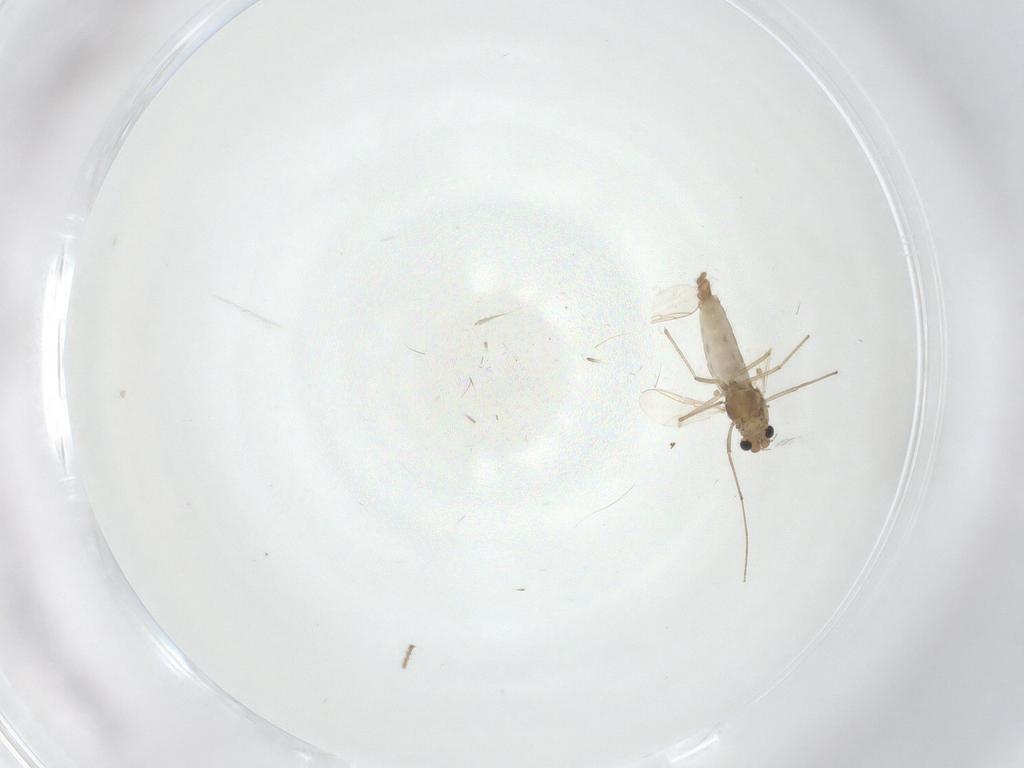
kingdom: Animalia
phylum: Arthropoda
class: Insecta
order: Diptera
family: Chironomidae
